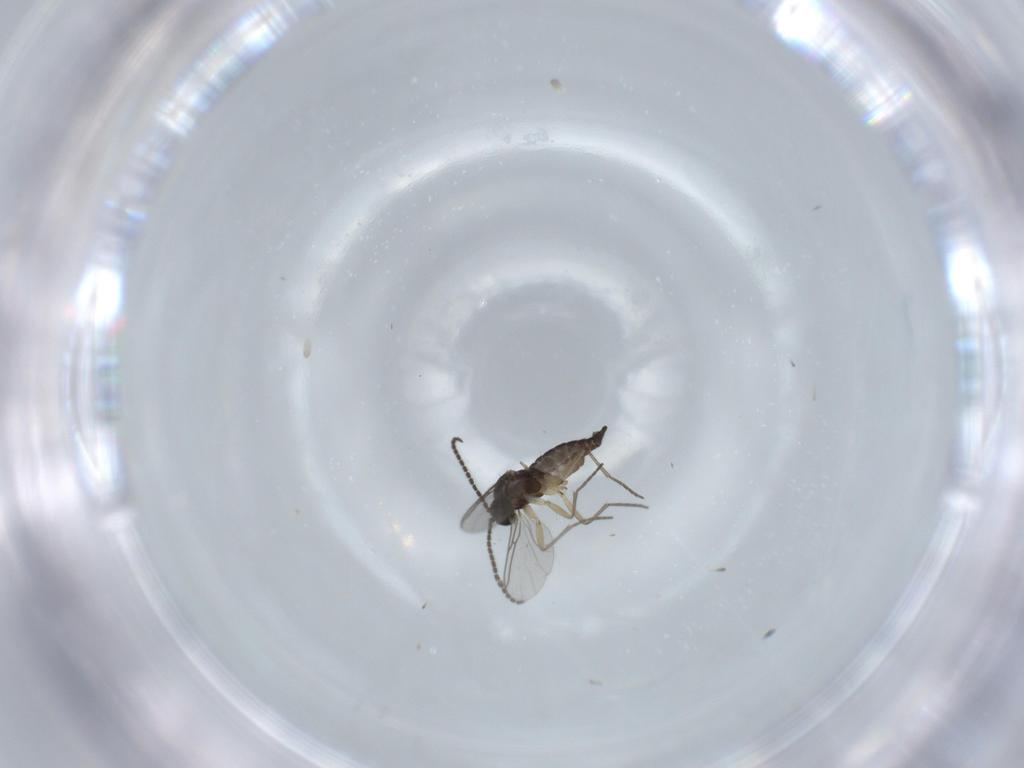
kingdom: Animalia
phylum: Arthropoda
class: Insecta
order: Diptera
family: Sciaridae
